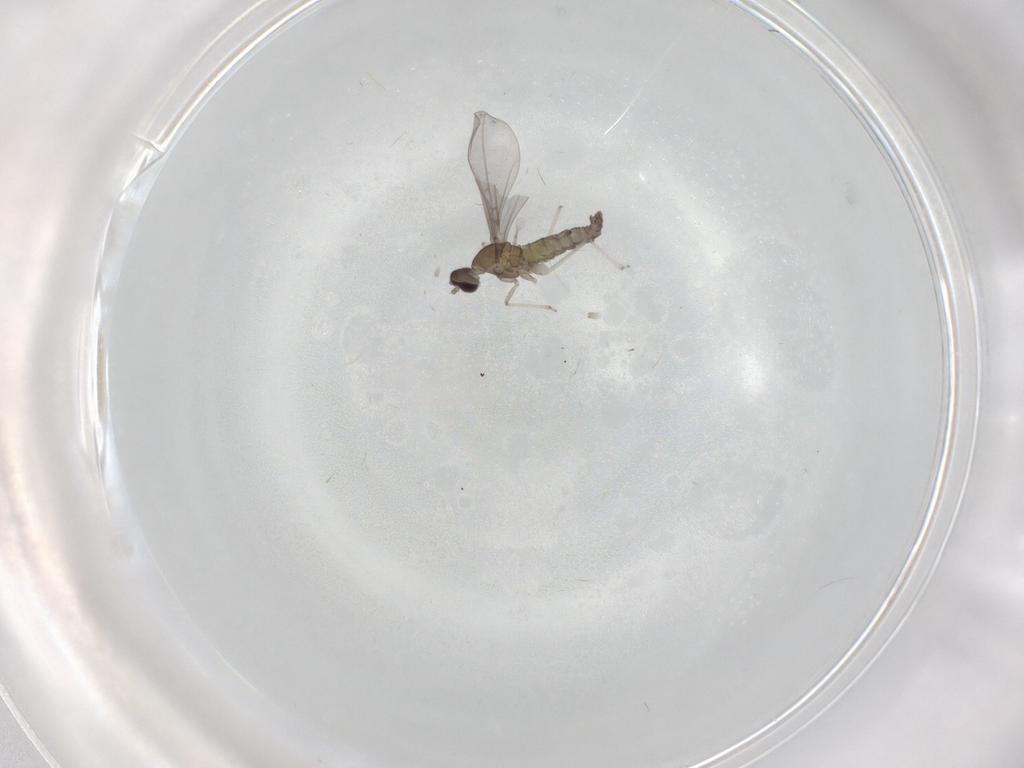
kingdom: Animalia
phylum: Arthropoda
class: Insecta
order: Diptera
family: Cecidomyiidae
